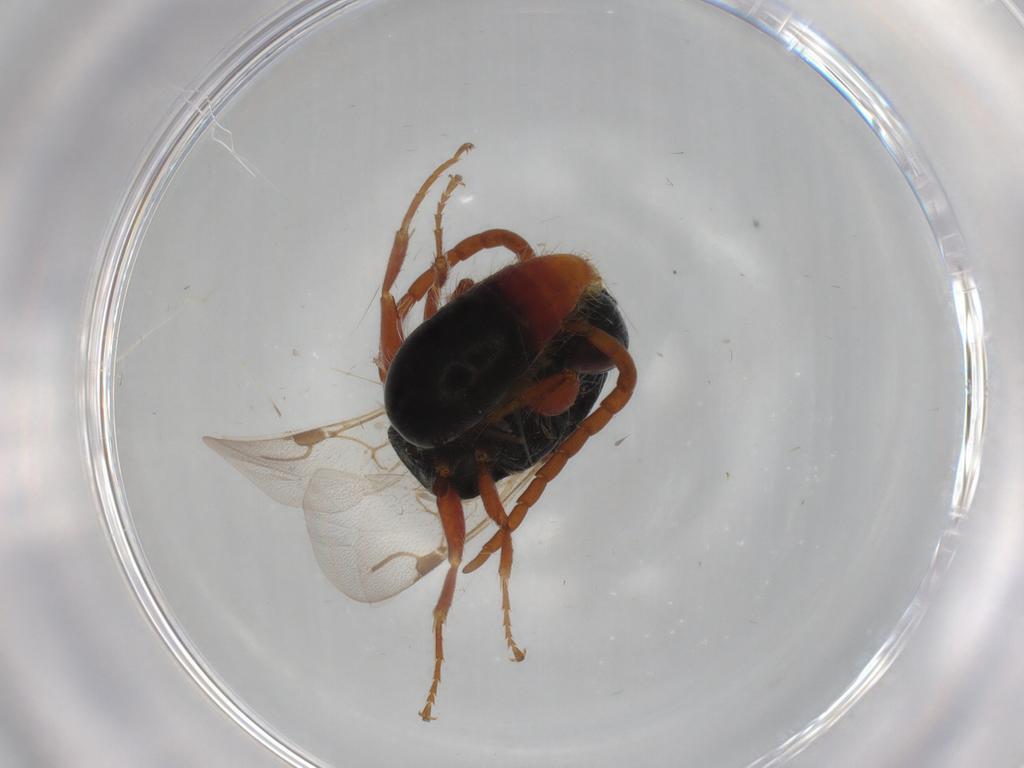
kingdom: Animalia
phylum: Arthropoda
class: Insecta
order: Hymenoptera
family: Bethylidae
